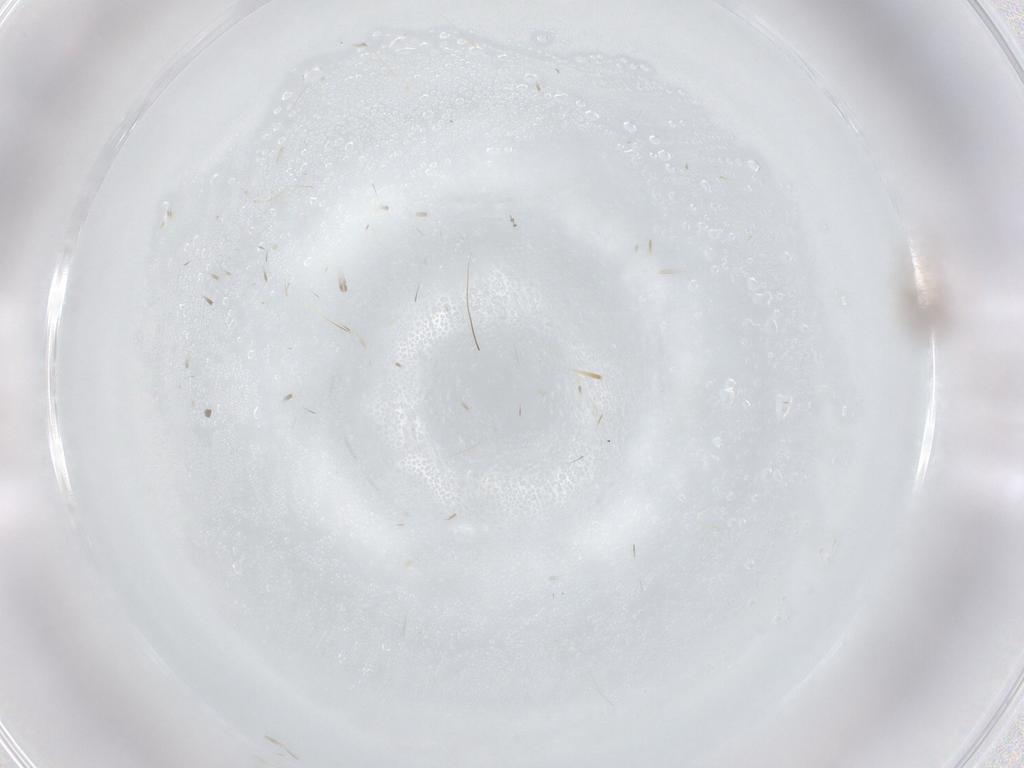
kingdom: Animalia
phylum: Arthropoda
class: Insecta
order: Diptera
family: Drosophilidae
